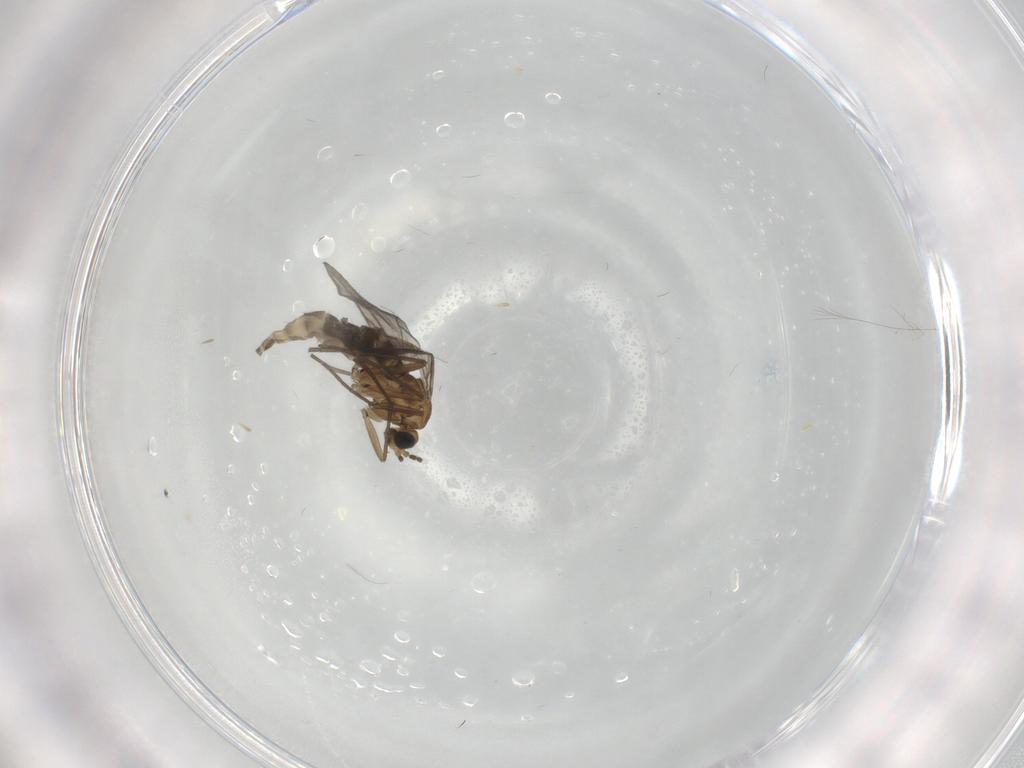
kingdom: Animalia
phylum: Arthropoda
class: Insecta
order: Diptera
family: Sciaridae
